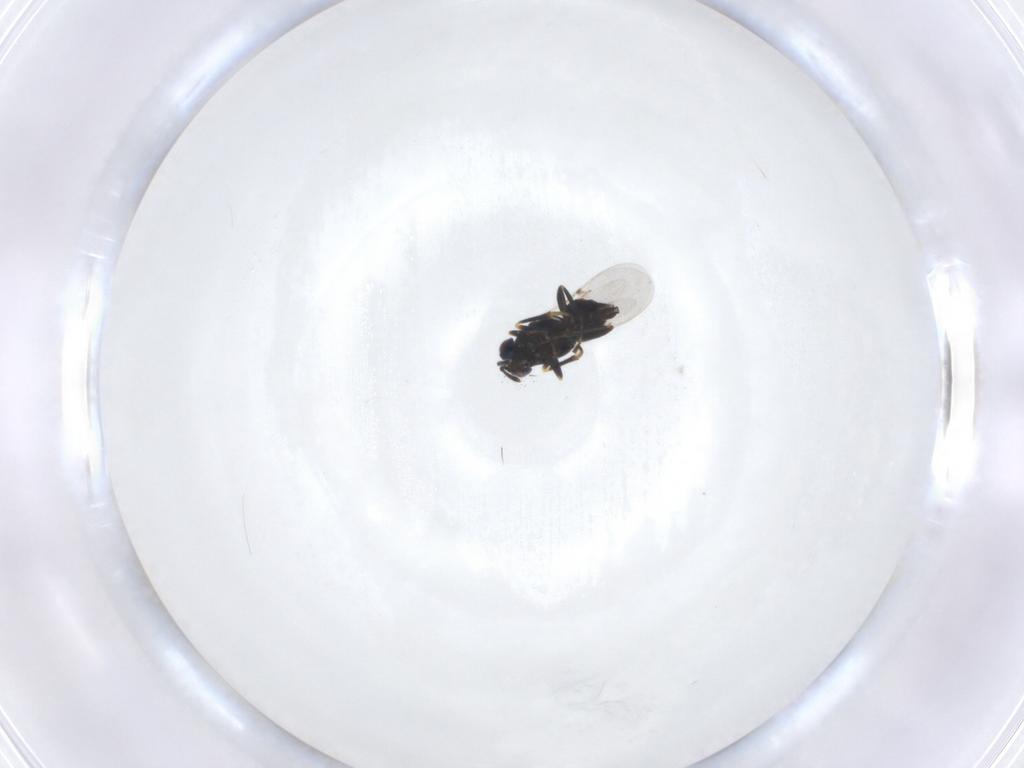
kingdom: Animalia
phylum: Arthropoda
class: Insecta
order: Hymenoptera
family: Encyrtidae
